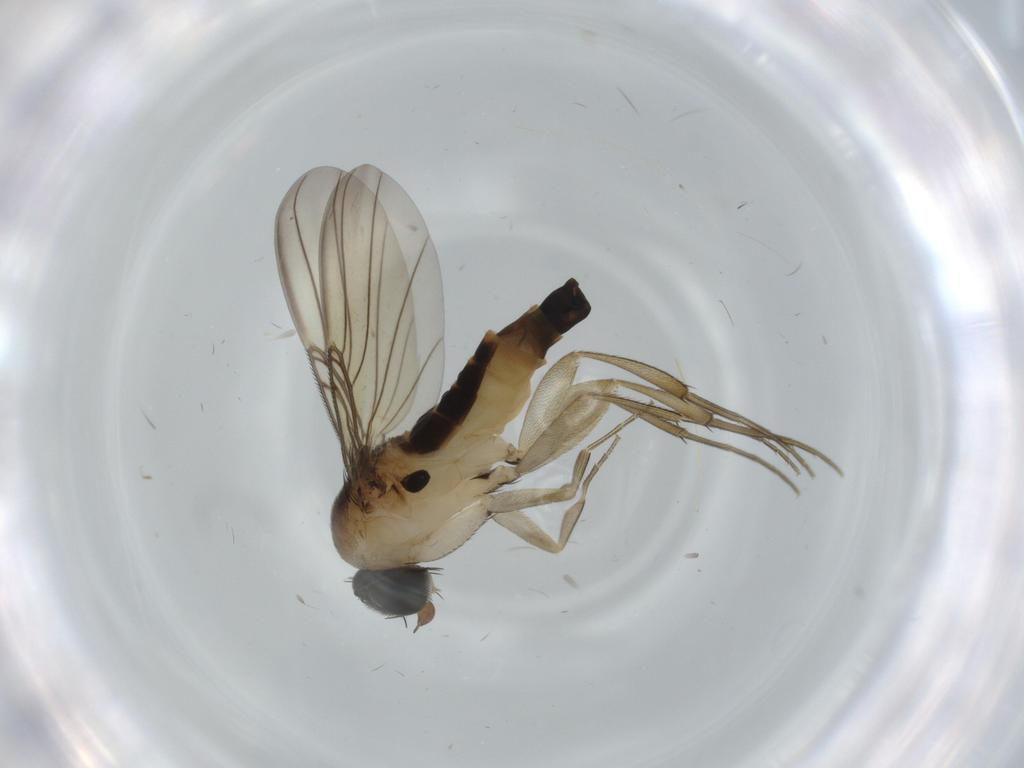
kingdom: Animalia
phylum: Arthropoda
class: Insecta
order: Diptera
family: Phoridae
